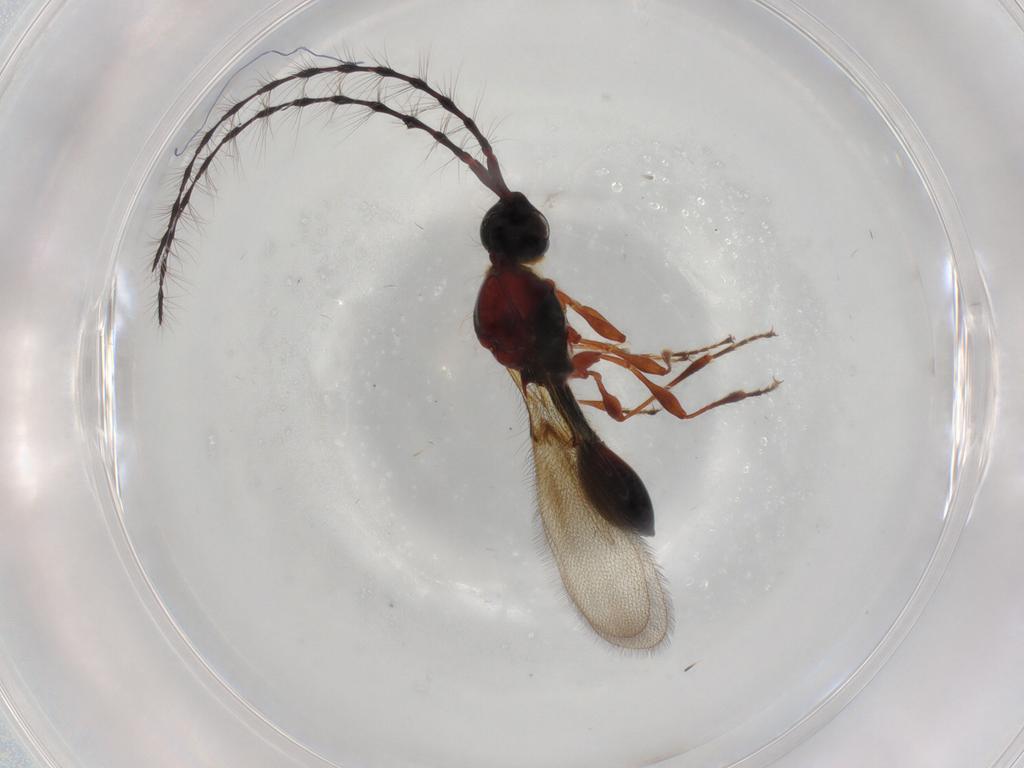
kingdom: Animalia
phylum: Arthropoda
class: Insecta
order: Hymenoptera
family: Diapriidae
